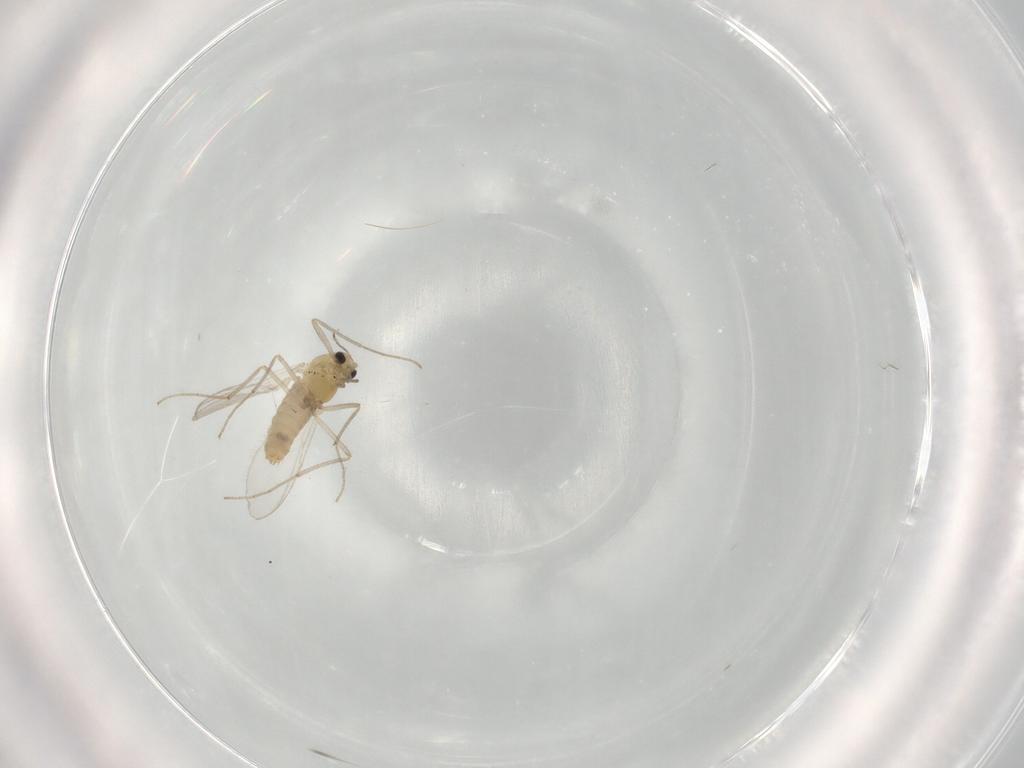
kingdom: Animalia
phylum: Arthropoda
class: Insecta
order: Diptera
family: Chironomidae
